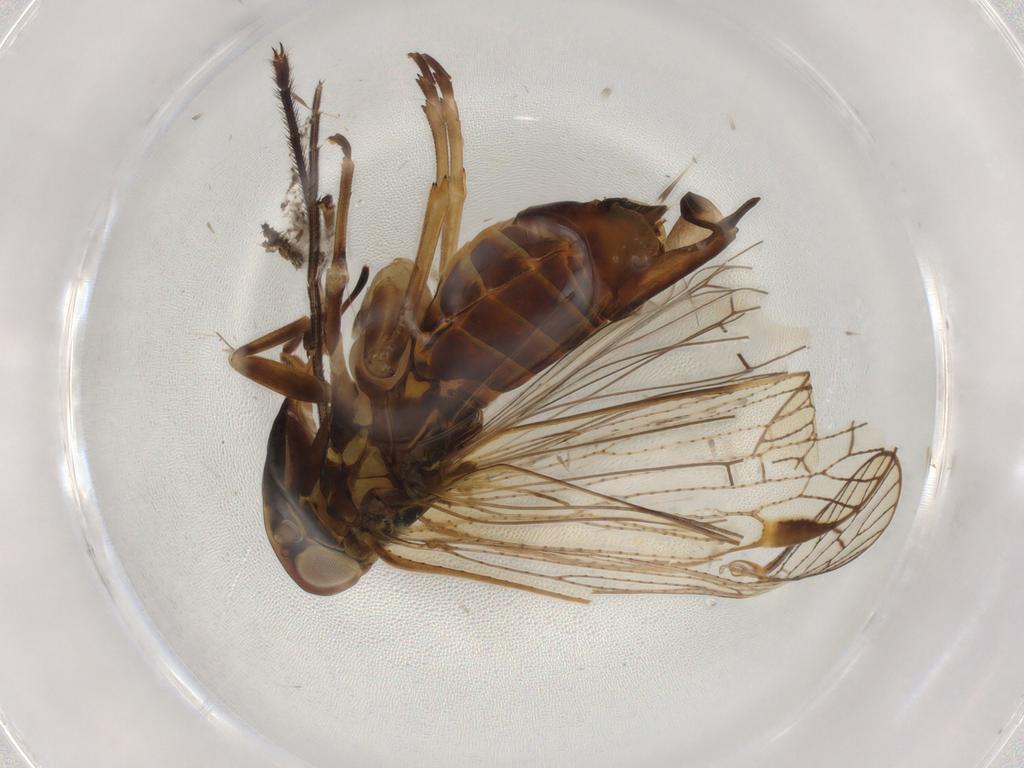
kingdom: Animalia
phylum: Arthropoda
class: Insecta
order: Hemiptera
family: Cixiidae
